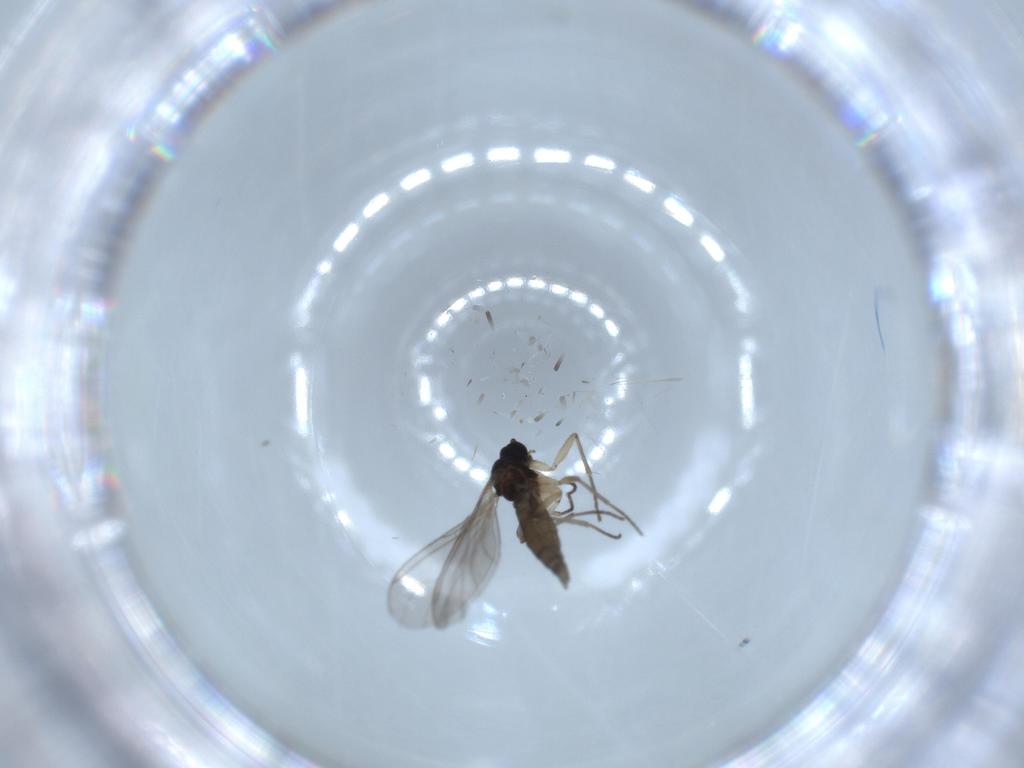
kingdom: Animalia
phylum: Arthropoda
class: Insecta
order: Diptera
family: Sciaridae
